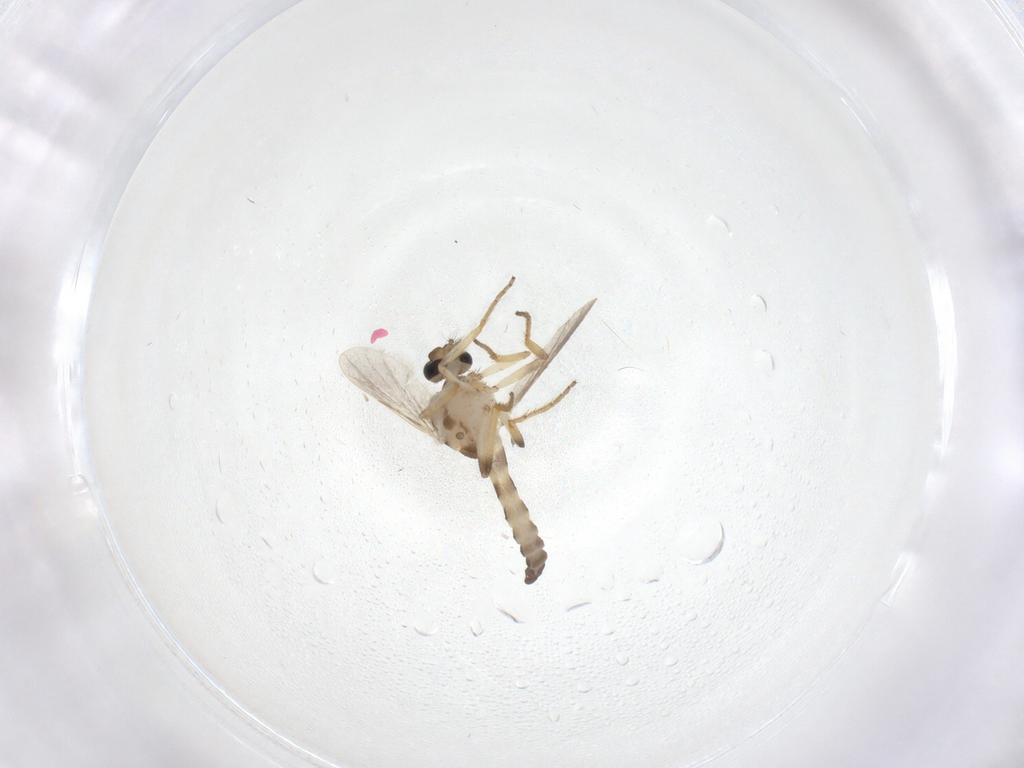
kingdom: Animalia
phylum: Arthropoda
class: Insecta
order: Diptera
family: Ceratopogonidae
